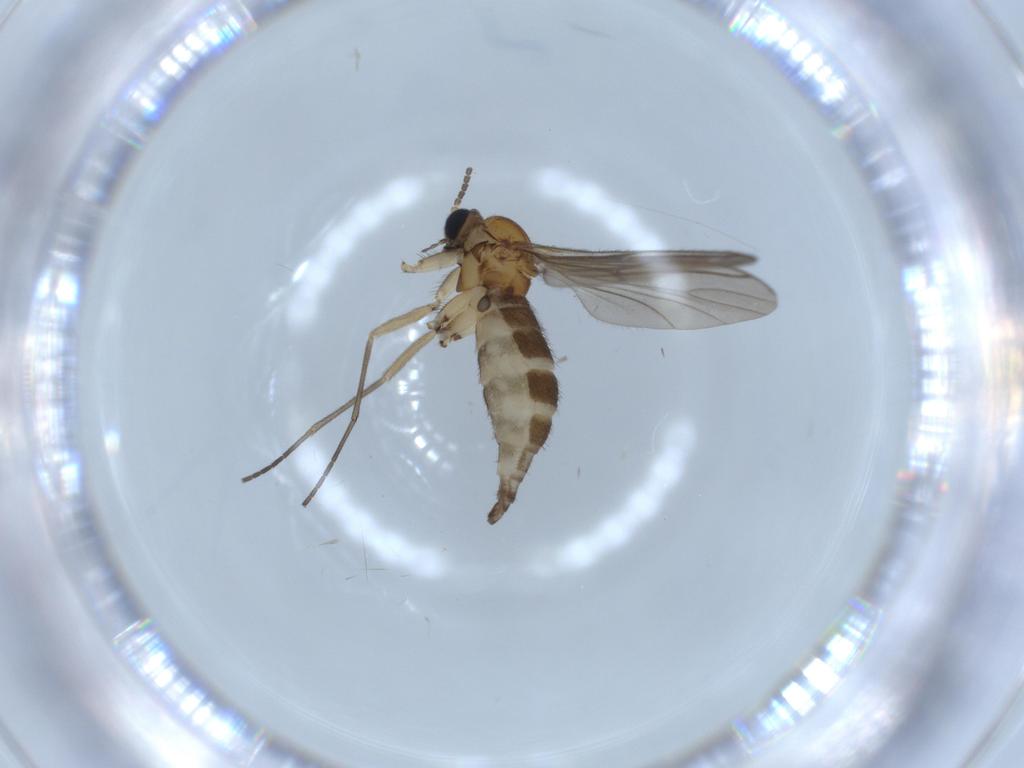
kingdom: Animalia
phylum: Arthropoda
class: Insecta
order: Diptera
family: Sciaridae
